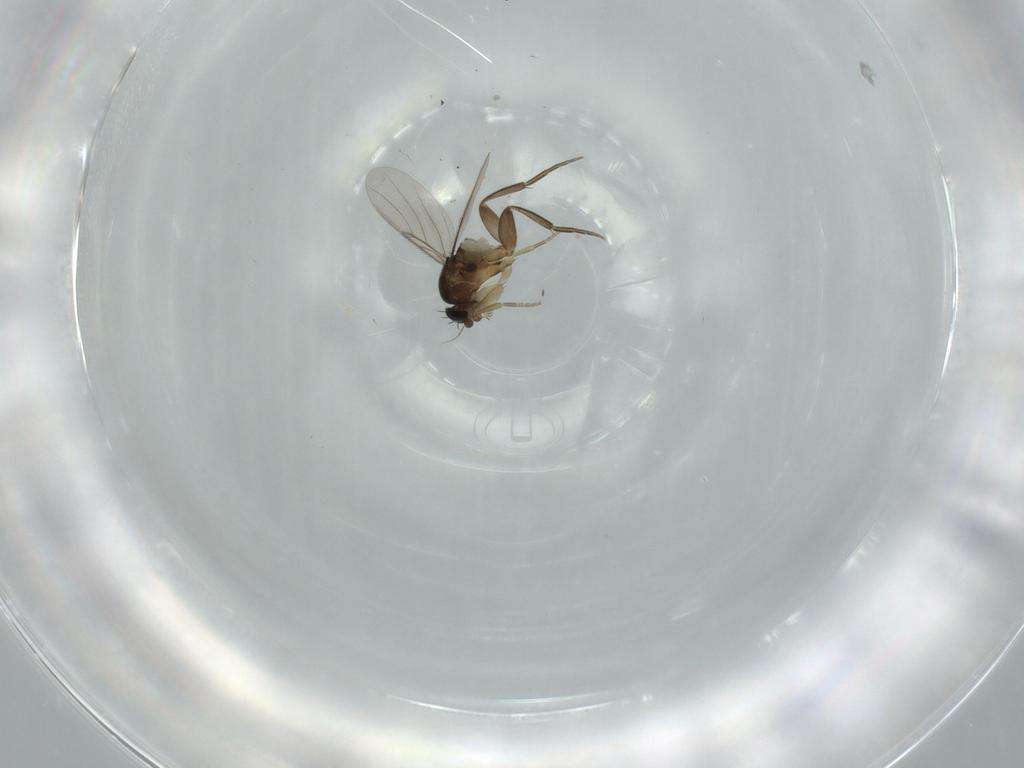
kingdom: Animalia
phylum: Arthropoda
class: Insecta
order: Diptera
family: Phoridae
